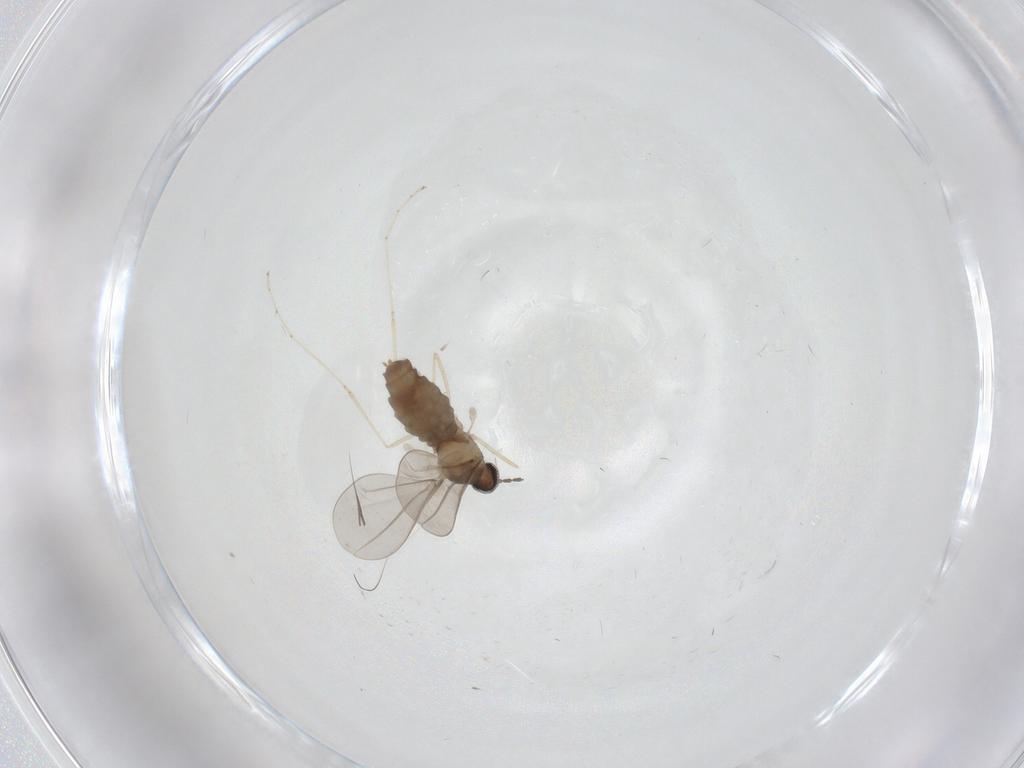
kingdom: Animalia
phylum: Arthropoda
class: Insecta
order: Diptera
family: Cecidomyiidae
